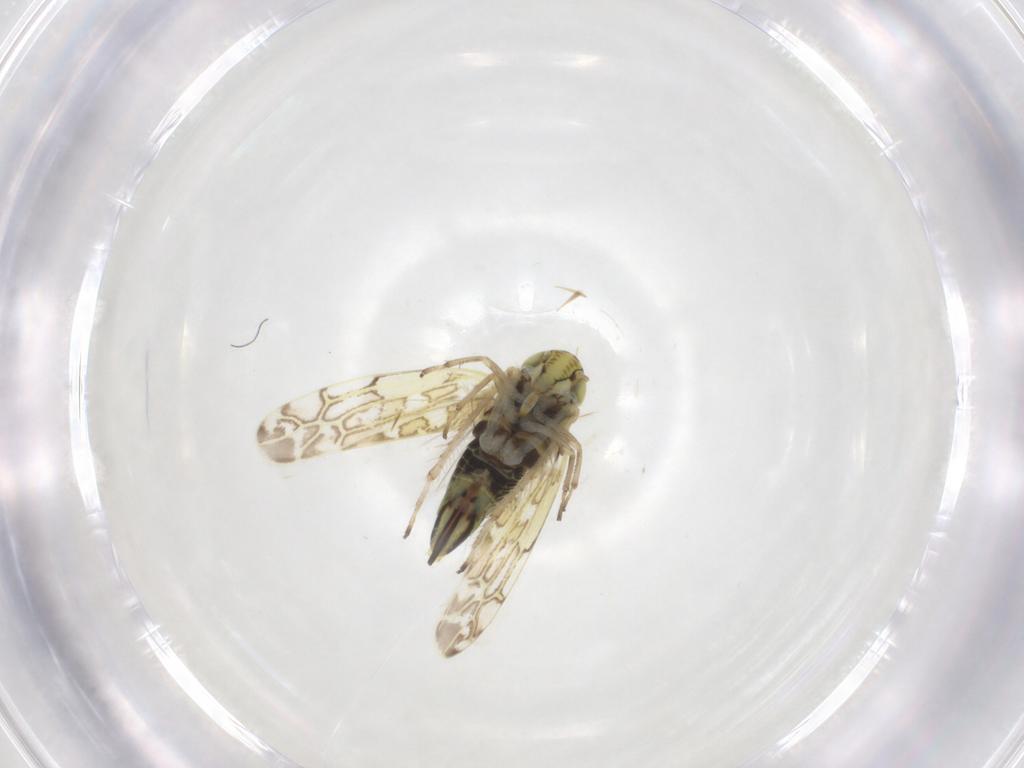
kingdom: Animalia
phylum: Arthropoda
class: Insecta
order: Hemiptera
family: Cicadellidae
